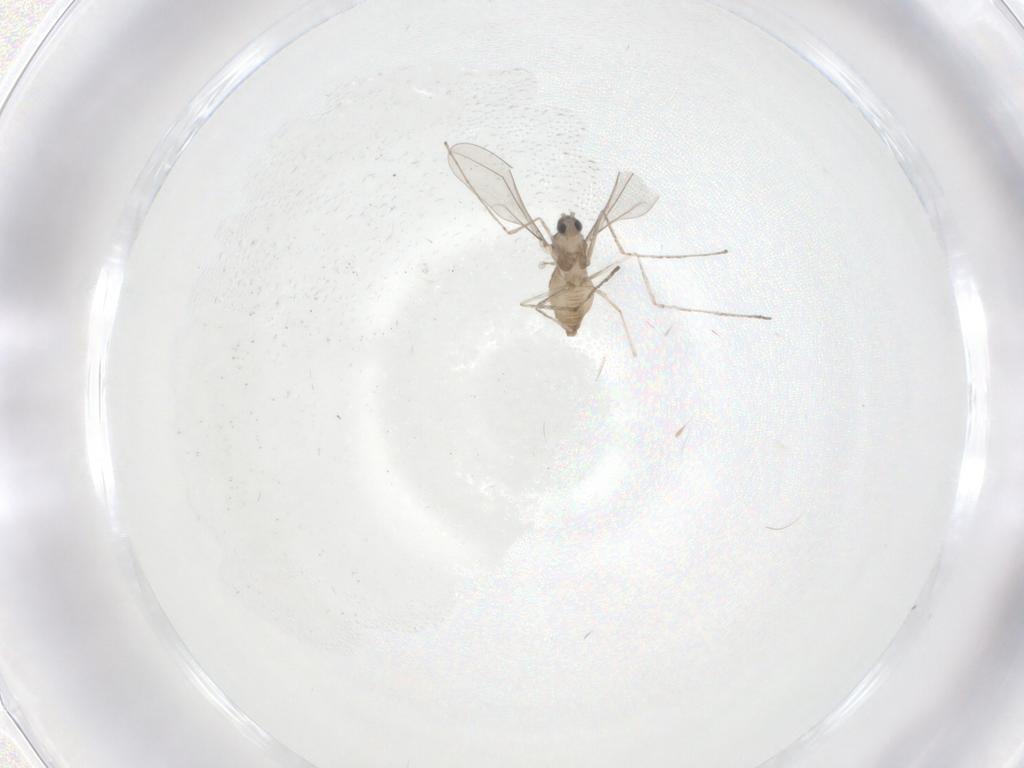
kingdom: Animalia
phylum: Arthropoda
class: Insecta
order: Diptera
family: Cecidomyiidae
